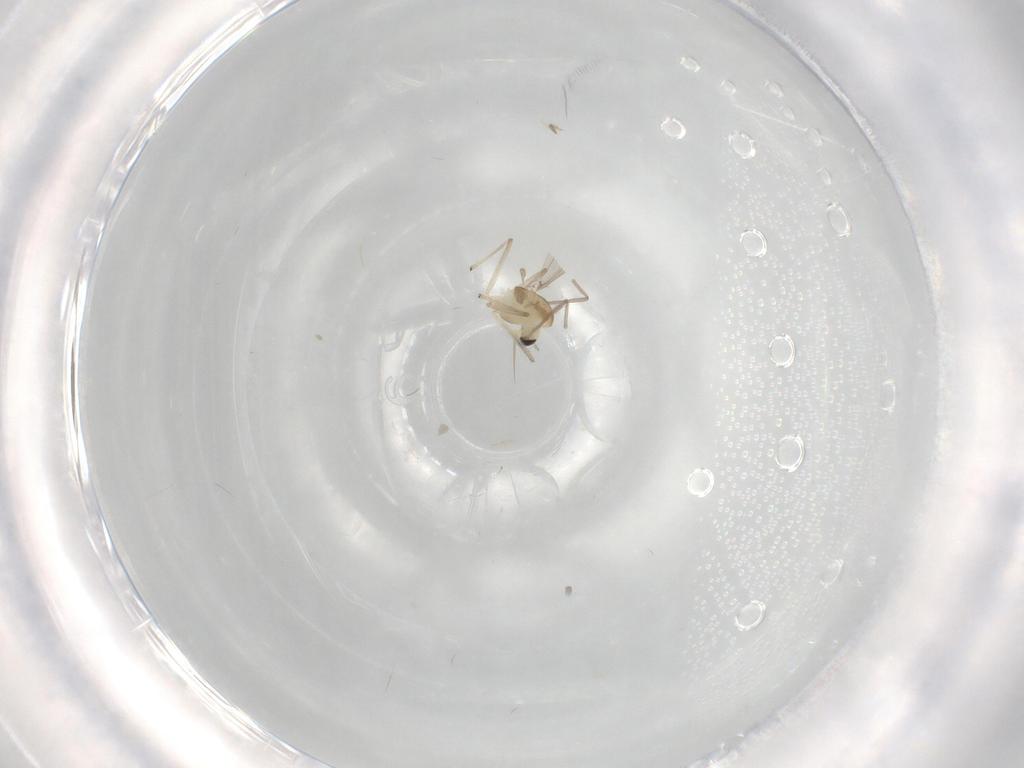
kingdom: Animalia
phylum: Arthropoda
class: Insecta
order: Diptera
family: Chironomidae
